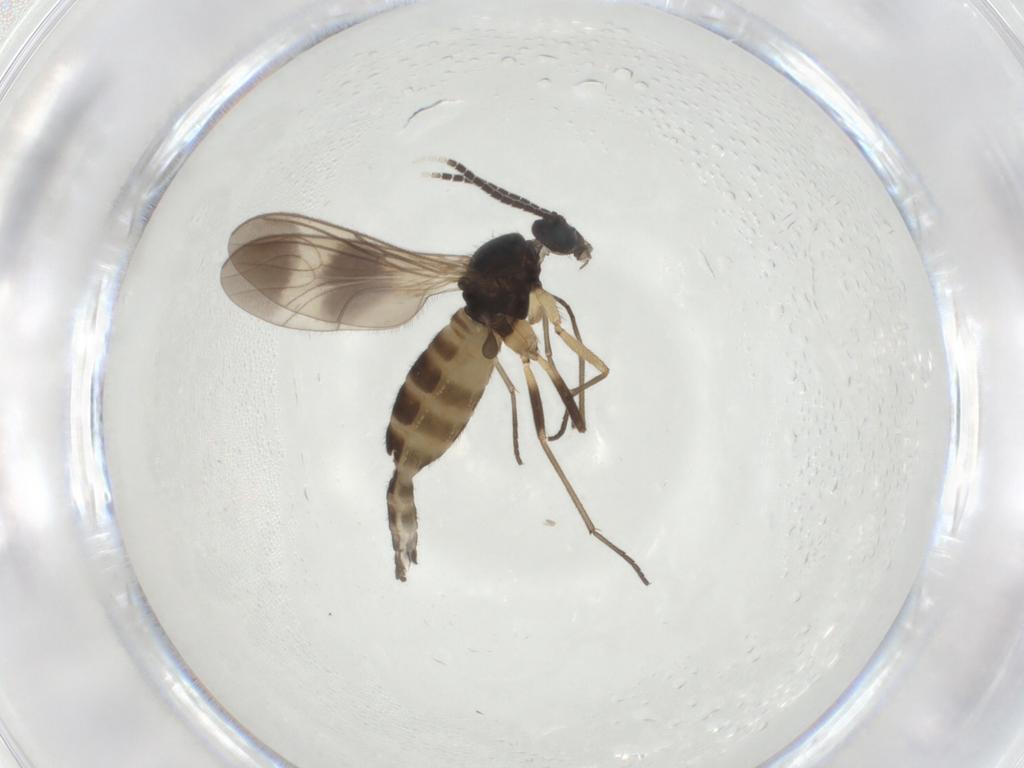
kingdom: Animalia
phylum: Arthropoda
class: Insecta
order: Diptera
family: Sciaridae
